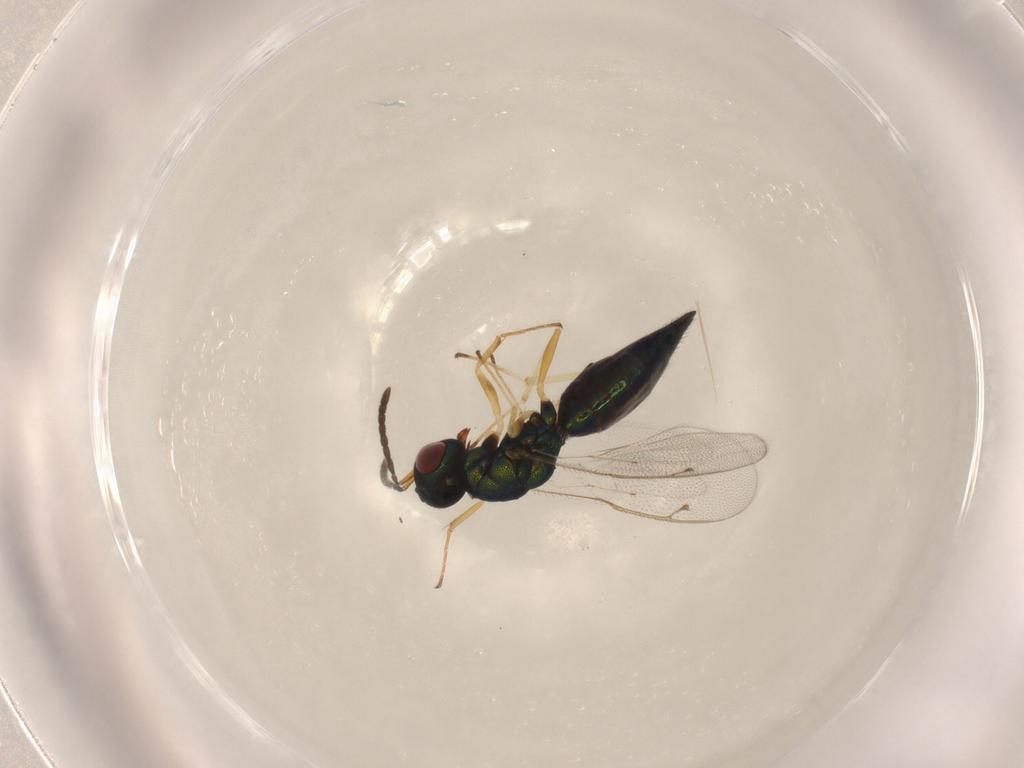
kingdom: Animalia
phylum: Arthropoda
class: Insecta
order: Hymenoptera
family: Pteromalidae
